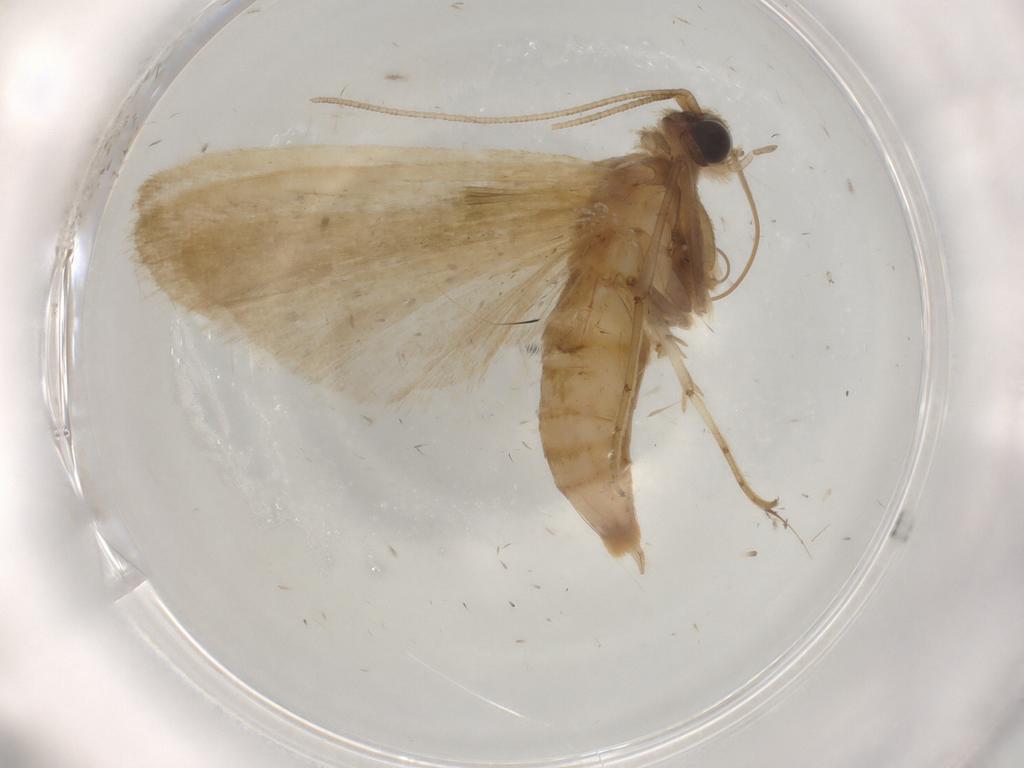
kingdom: Animalia
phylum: Arthropoda
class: Insecta
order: Lepidoptera
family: Noctuidae
